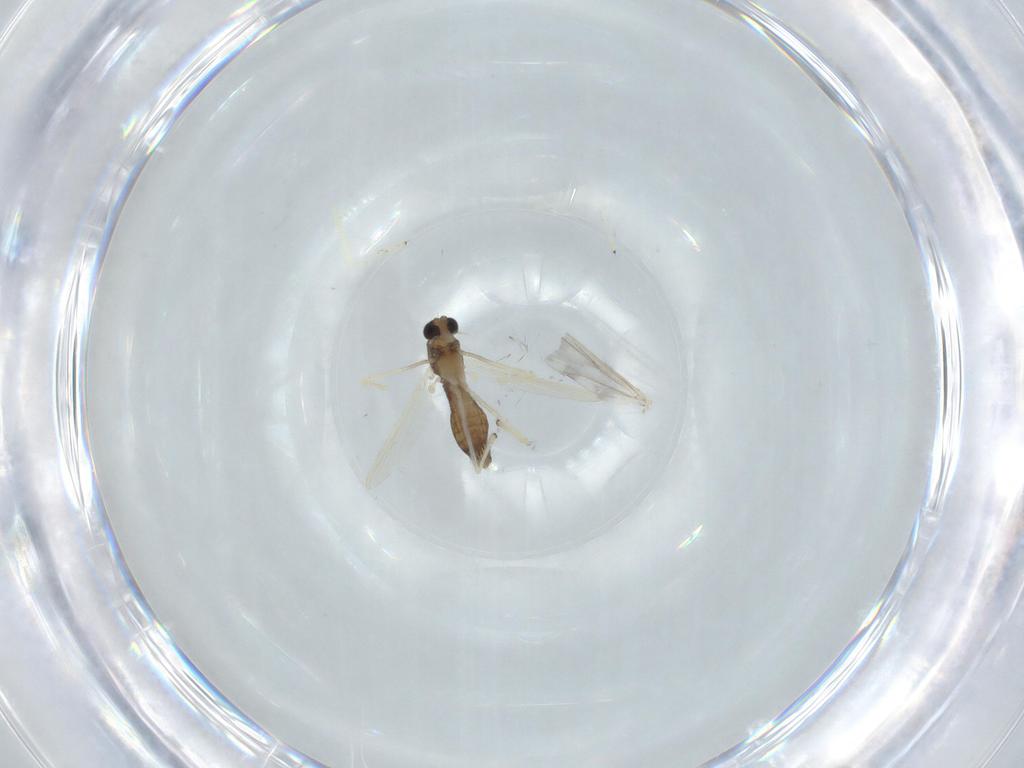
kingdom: Animalia
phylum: Arthropoda
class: Insecta
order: Diptera
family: Chironomidae
